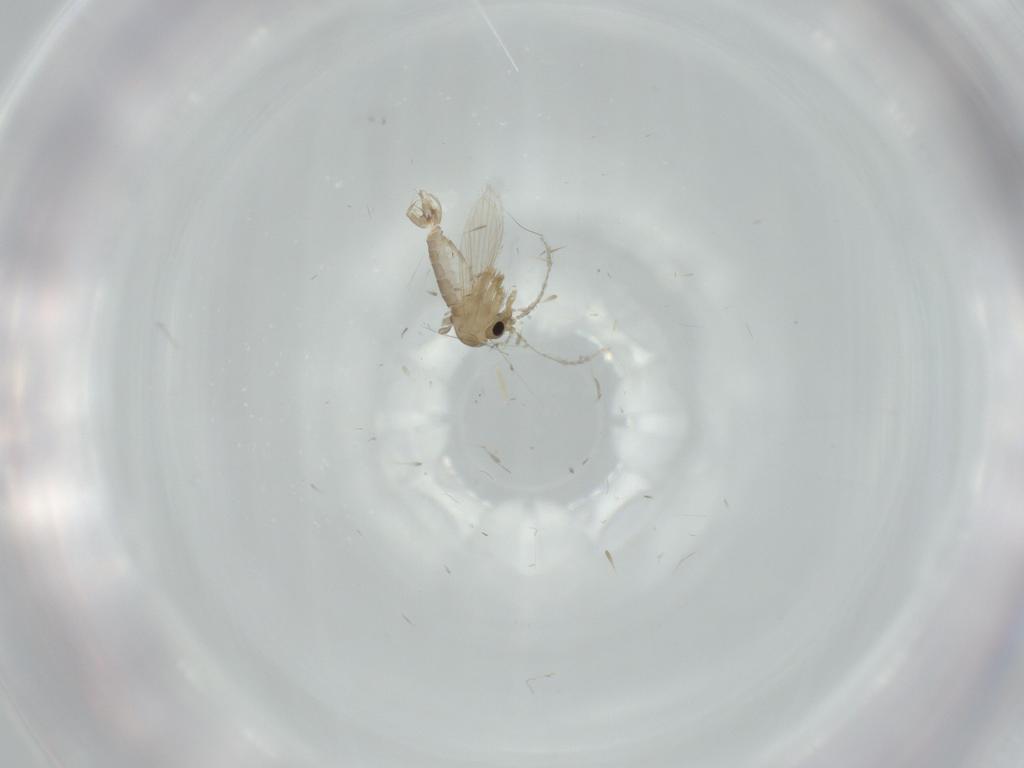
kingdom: Animalia
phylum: Arthropoda
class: Insecta
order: Diptera
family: Psychodidae
